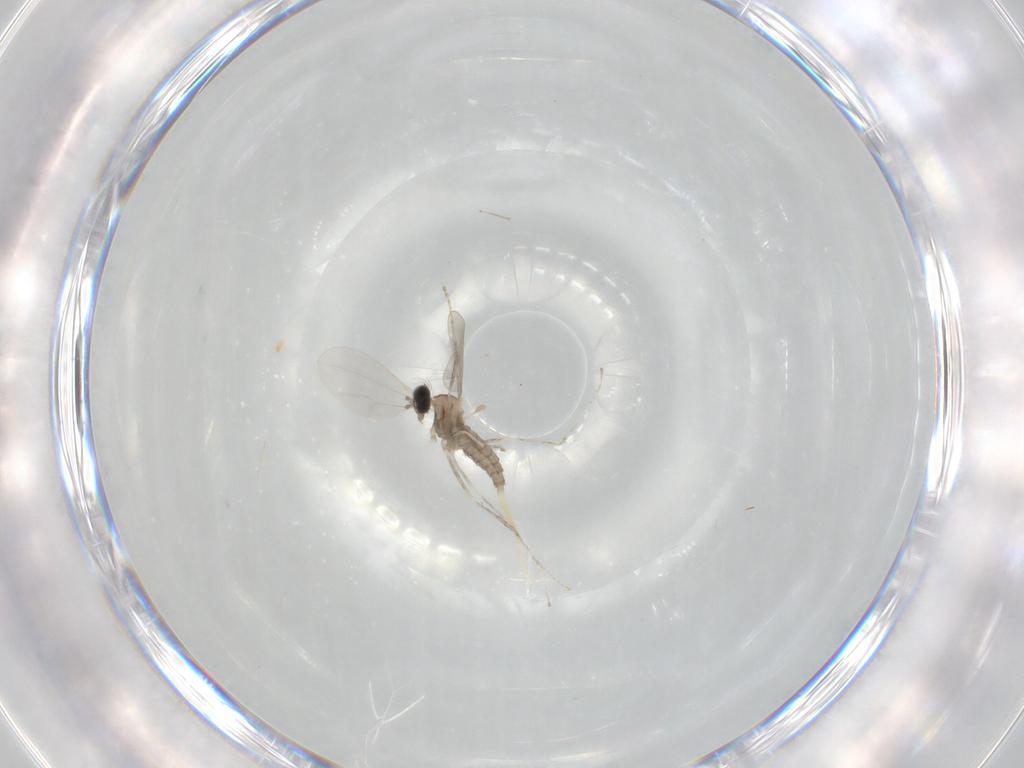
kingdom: Animalia
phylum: Arthropoda
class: Insecta
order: Diptera
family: Cecidomyiidae
